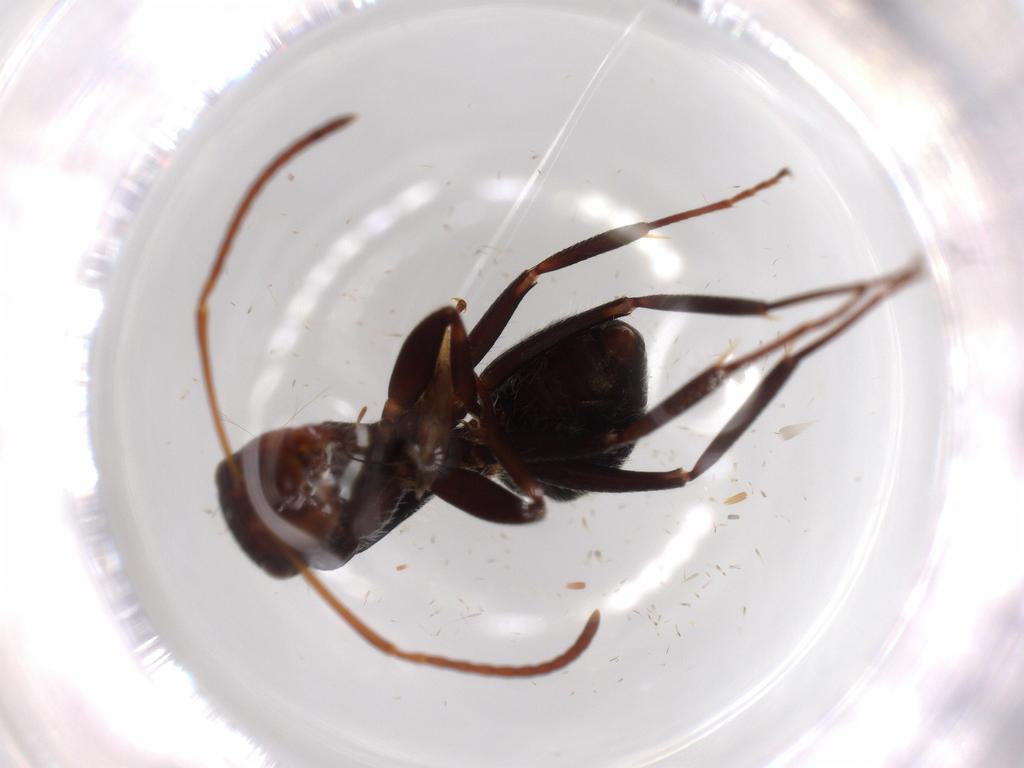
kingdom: Animalia
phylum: Arthropoda
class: Insecta
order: Hymenoptera
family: Formicidae
